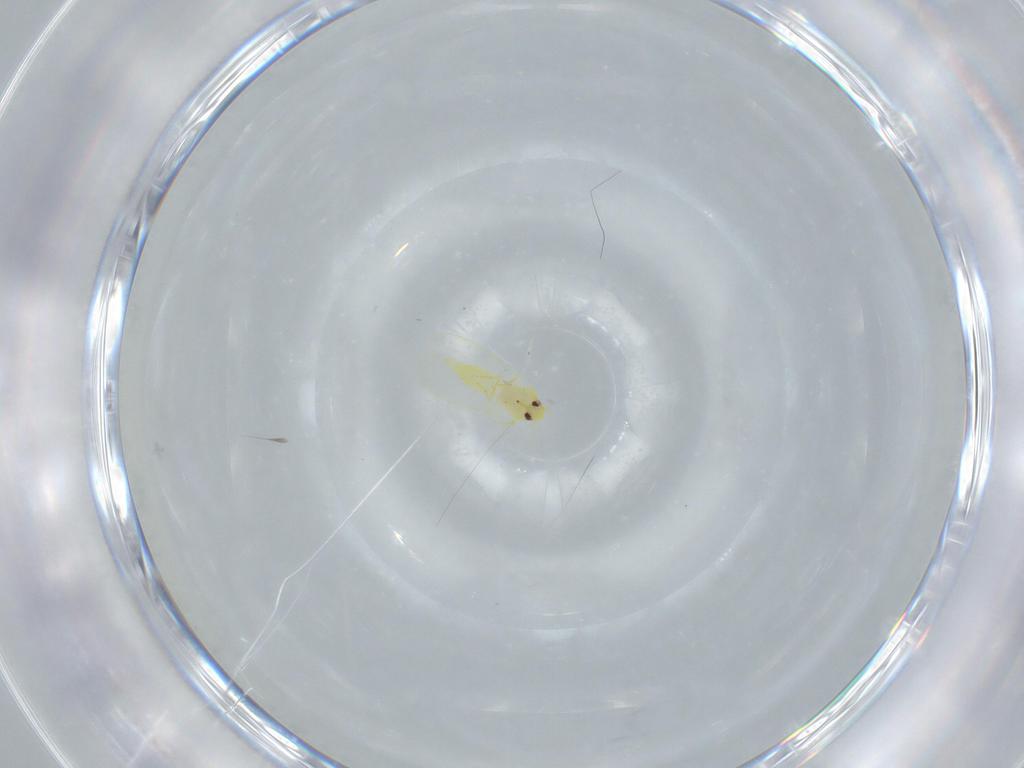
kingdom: Animalia
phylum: Arthropoda
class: Insecta
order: Hemiptera
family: Aleyrodidae
